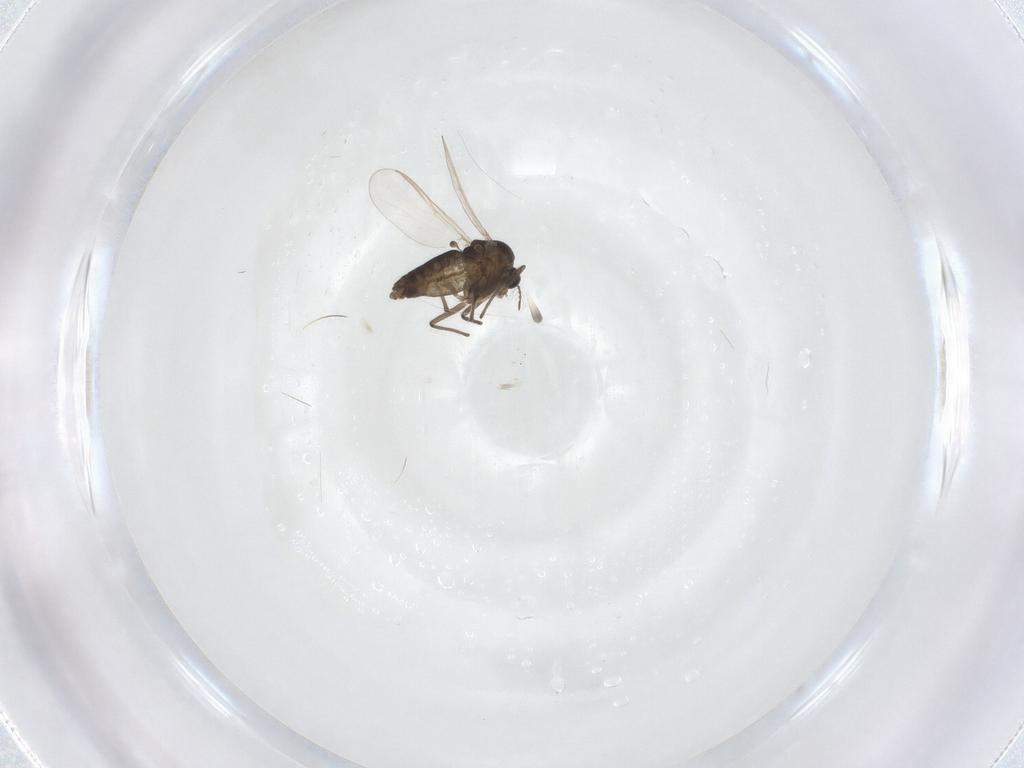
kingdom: Animalia
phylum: Arthropoda
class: Insecta
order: Diptera
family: Chironomidae
